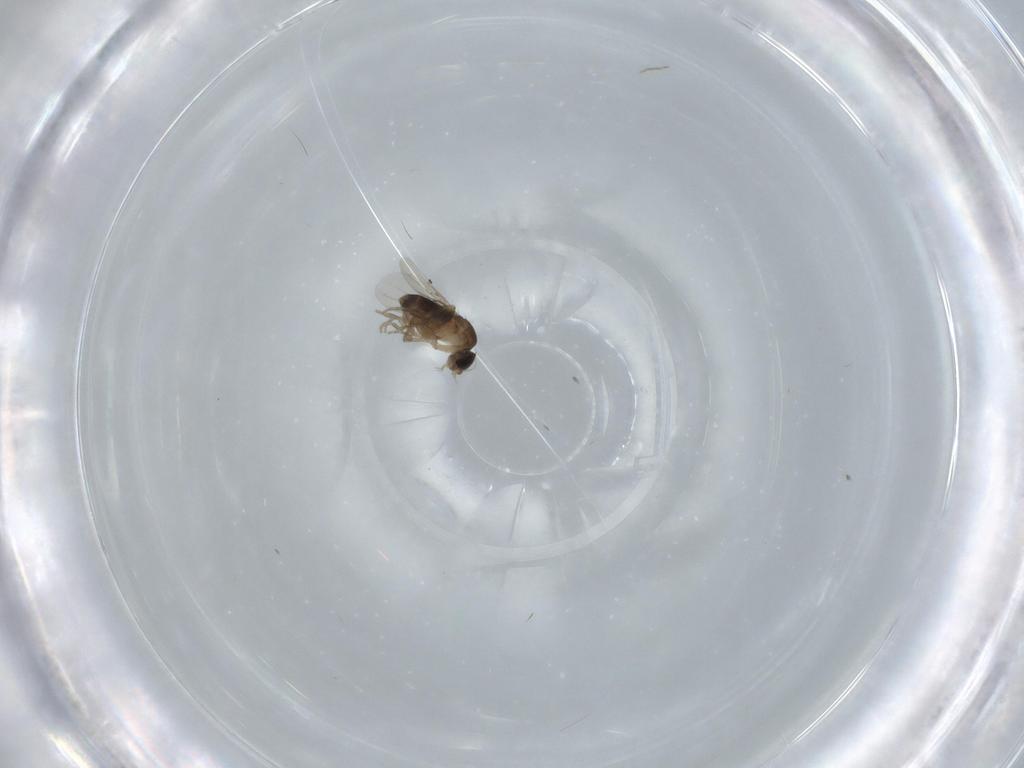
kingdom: Animalia
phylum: Arthropoda
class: Insecta
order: Diptera
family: Phoridae
